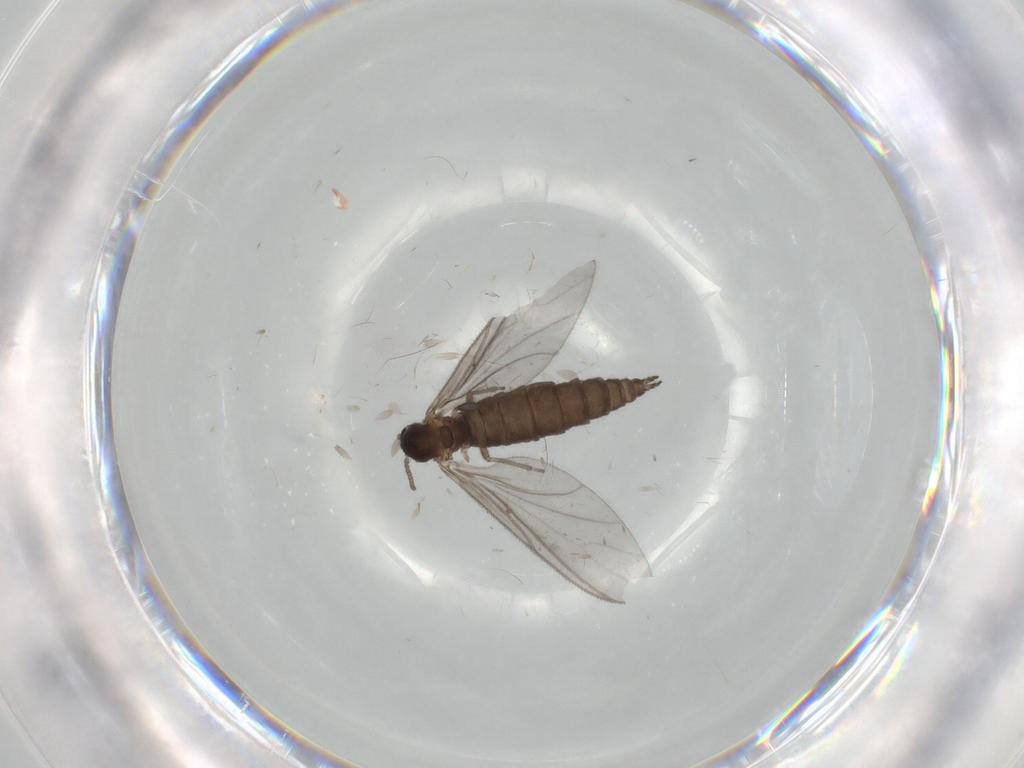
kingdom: Animalia
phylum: Arthropoda
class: Insecta
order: Diptera
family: Sciaridae
